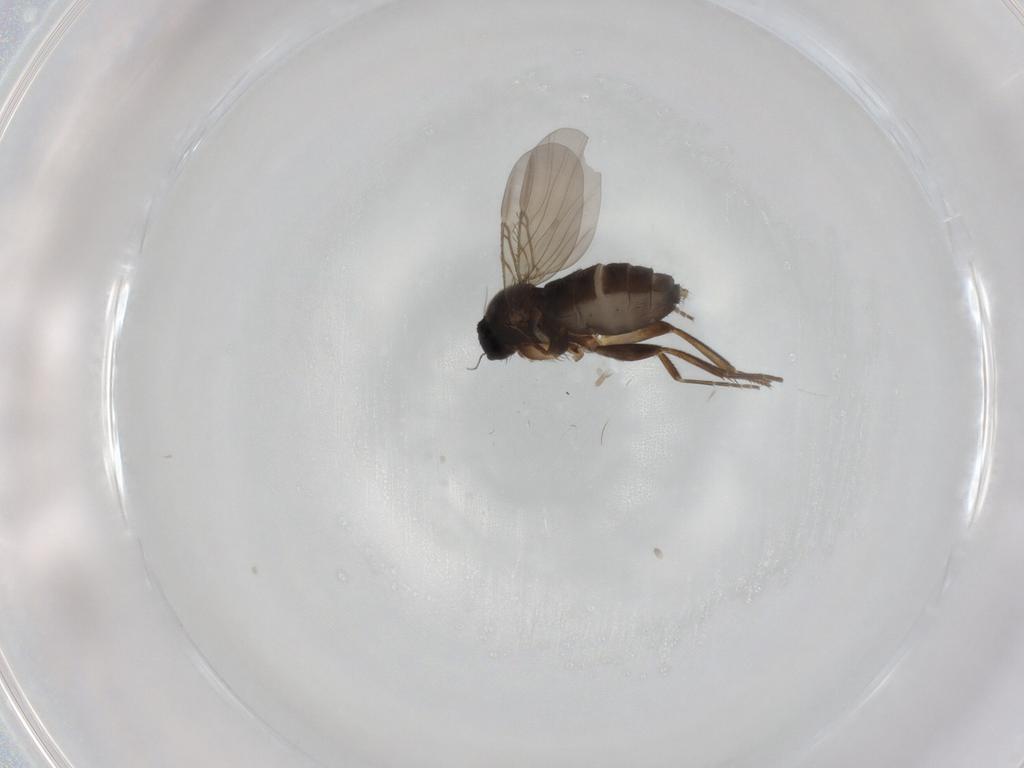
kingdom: Animalia
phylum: Arthropoda
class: Insecta
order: Diptera
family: Phoridae
